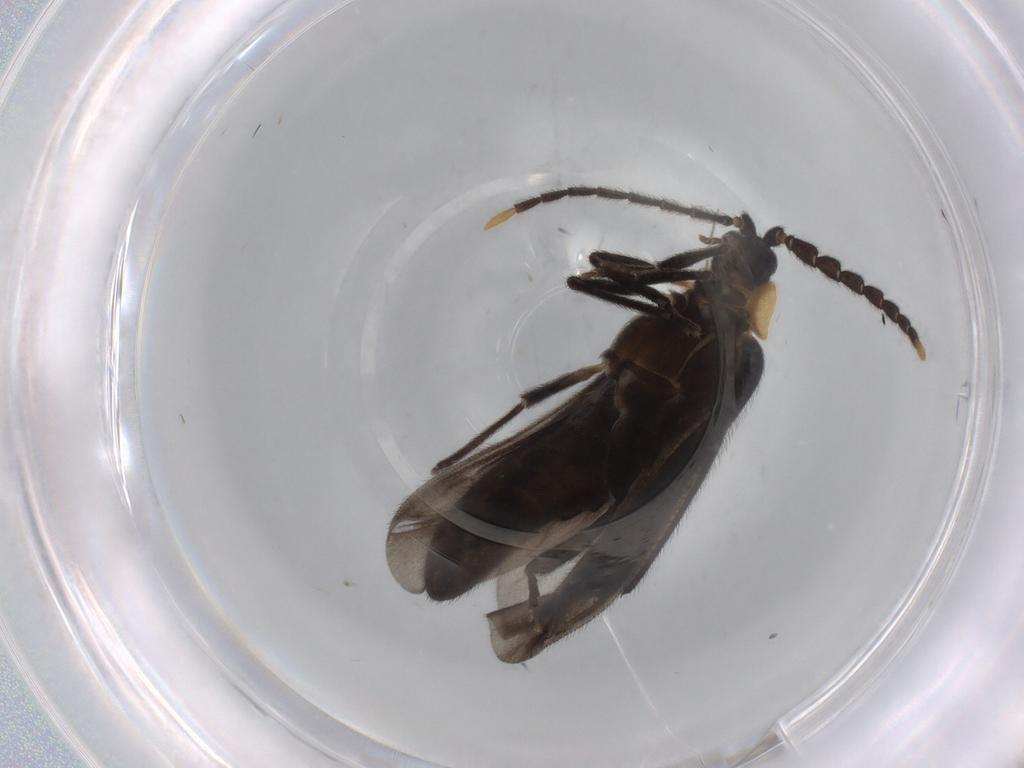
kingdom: Animalia
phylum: Arthropoda
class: Insecta
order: Coleoptera
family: Lycidae
